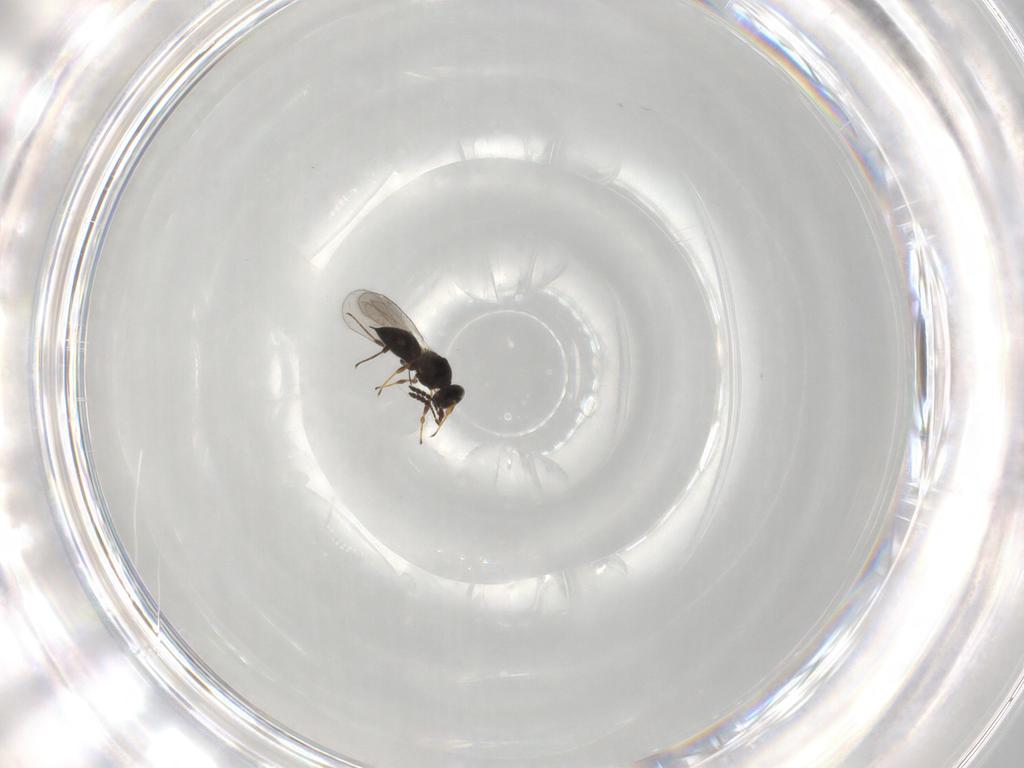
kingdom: Animalia
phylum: Arthropoda
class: Insecta
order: Hymenoptera
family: Platygastridae
